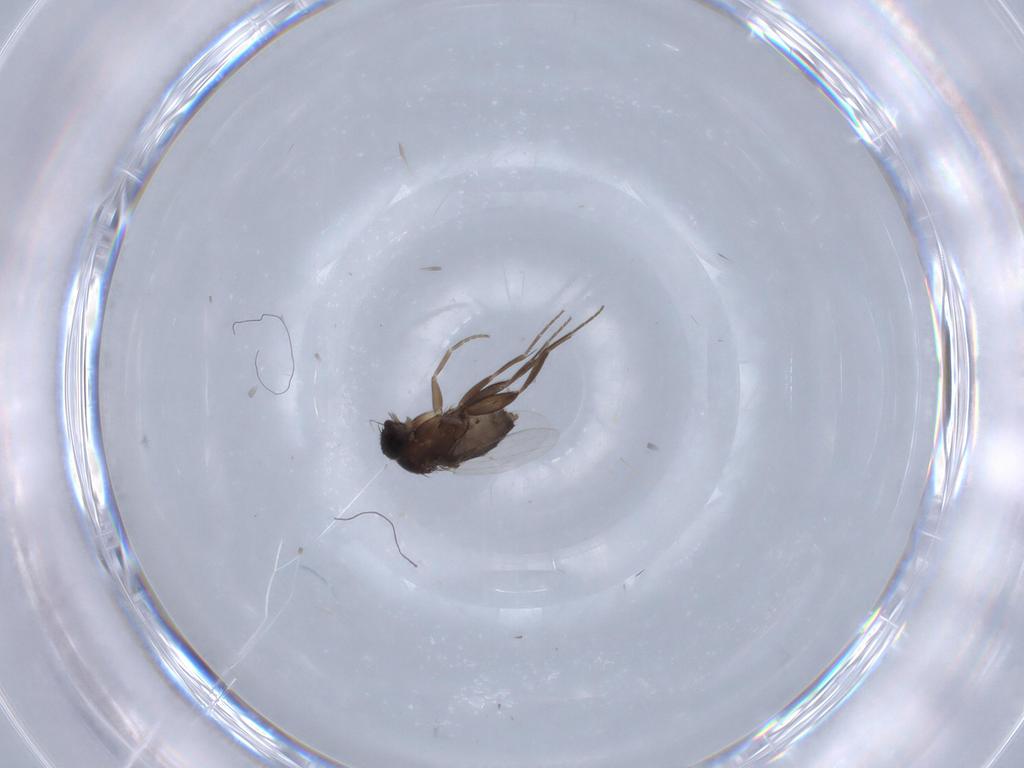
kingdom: Animalia
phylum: Arthropoda
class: Insecta
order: Diptera
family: Phoridae
